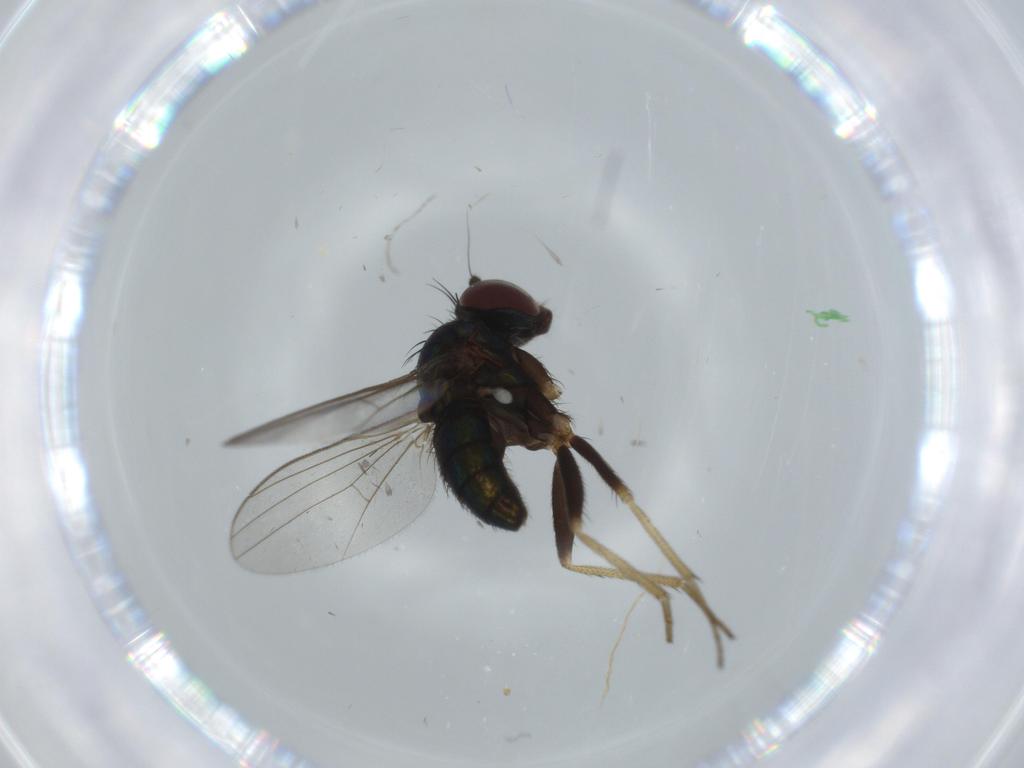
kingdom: Animalia
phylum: Arthropoda
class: Insecta
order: Diptera
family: Dolichopodidae
